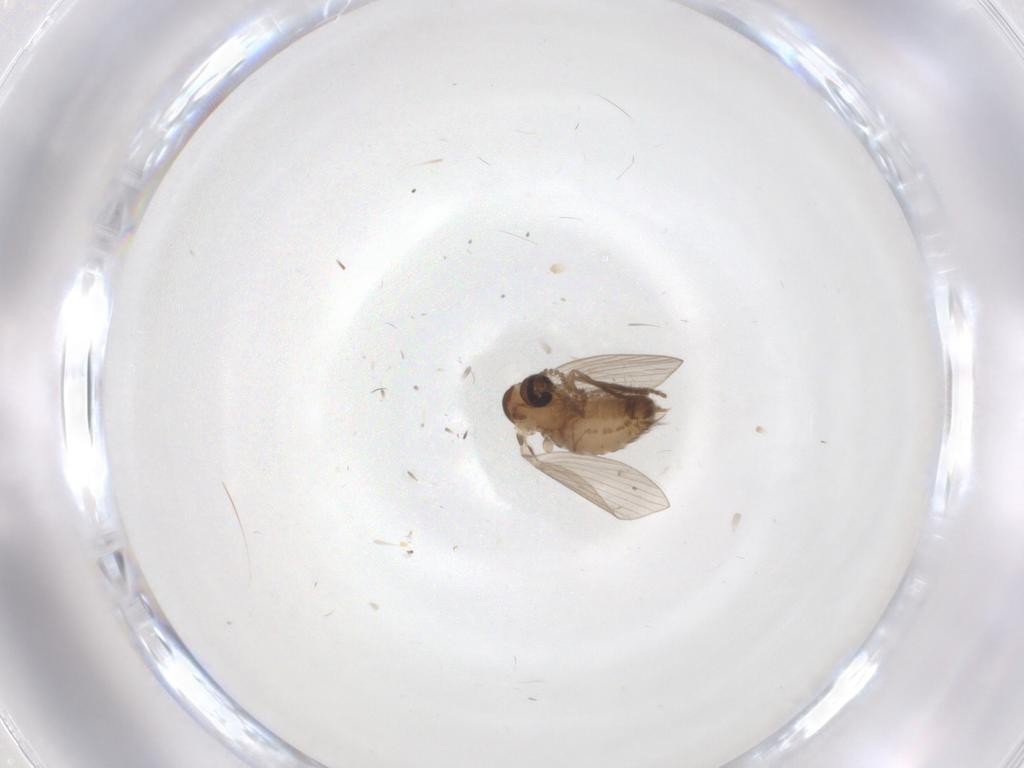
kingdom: Animalia
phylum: Arthropoda
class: Insecta
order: Diptera
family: Psychodidae
